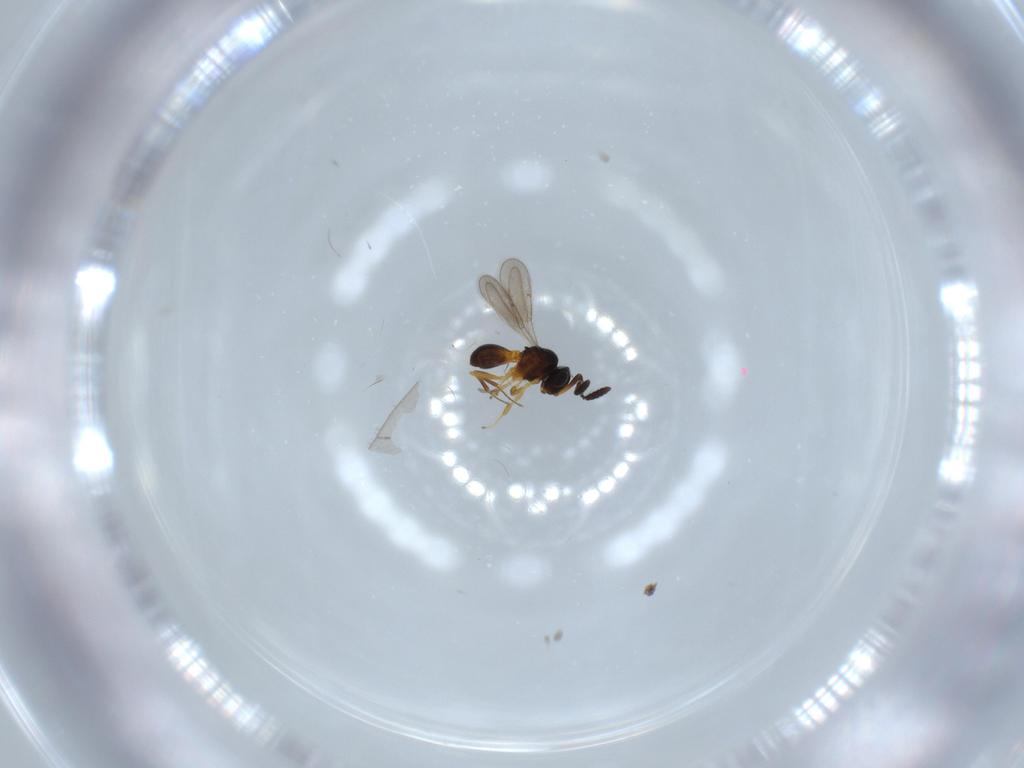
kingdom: Animalia
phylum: Arthropoda
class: Insecta
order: Hymenoptera
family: Scelionidae
